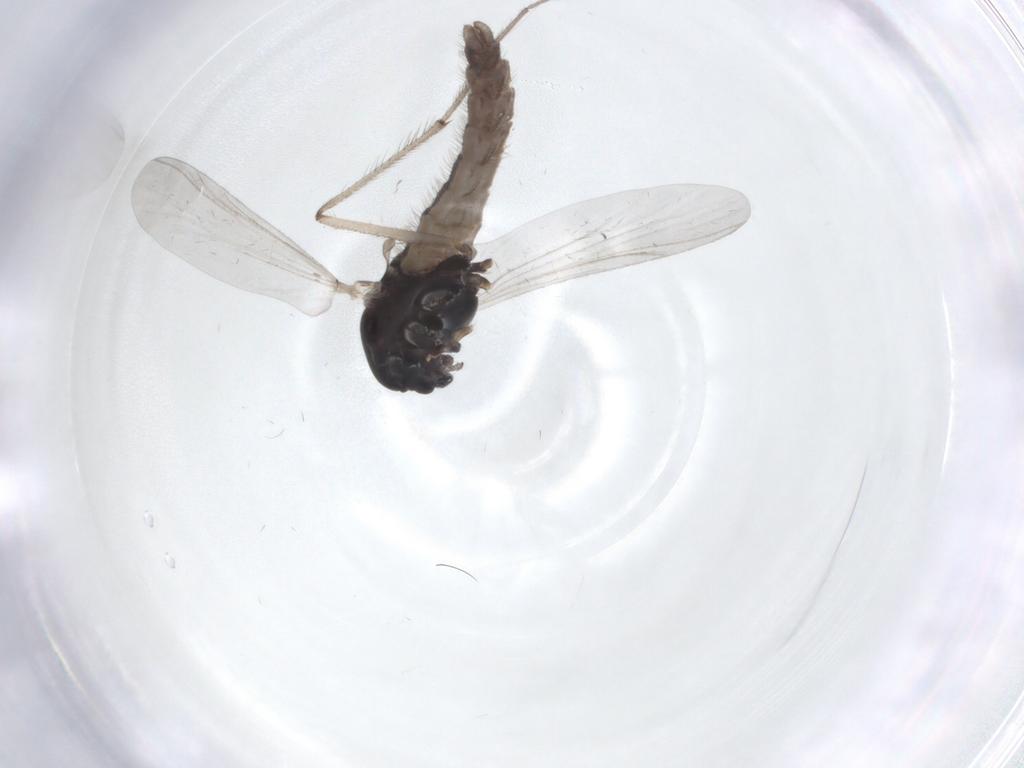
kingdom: Animalia
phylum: Arthropoda
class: Insecta
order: Diptera
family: Chironomidae
